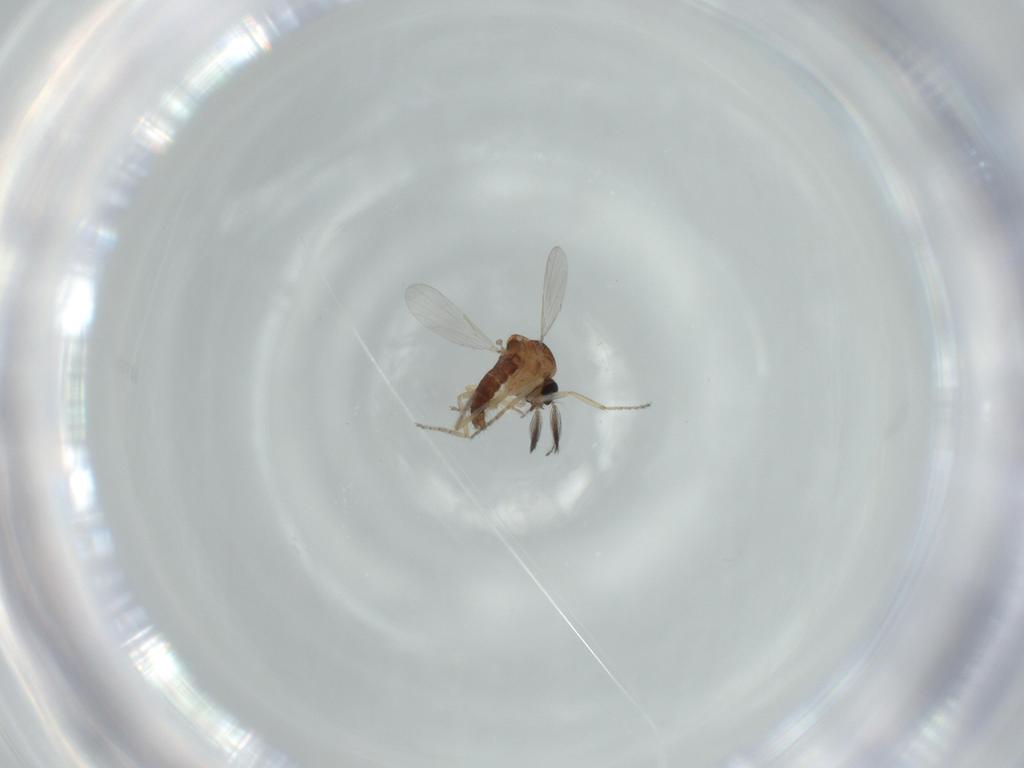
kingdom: Animalia
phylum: Arthropoda
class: Insecta
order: Diptera
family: Ceratopogonidae
